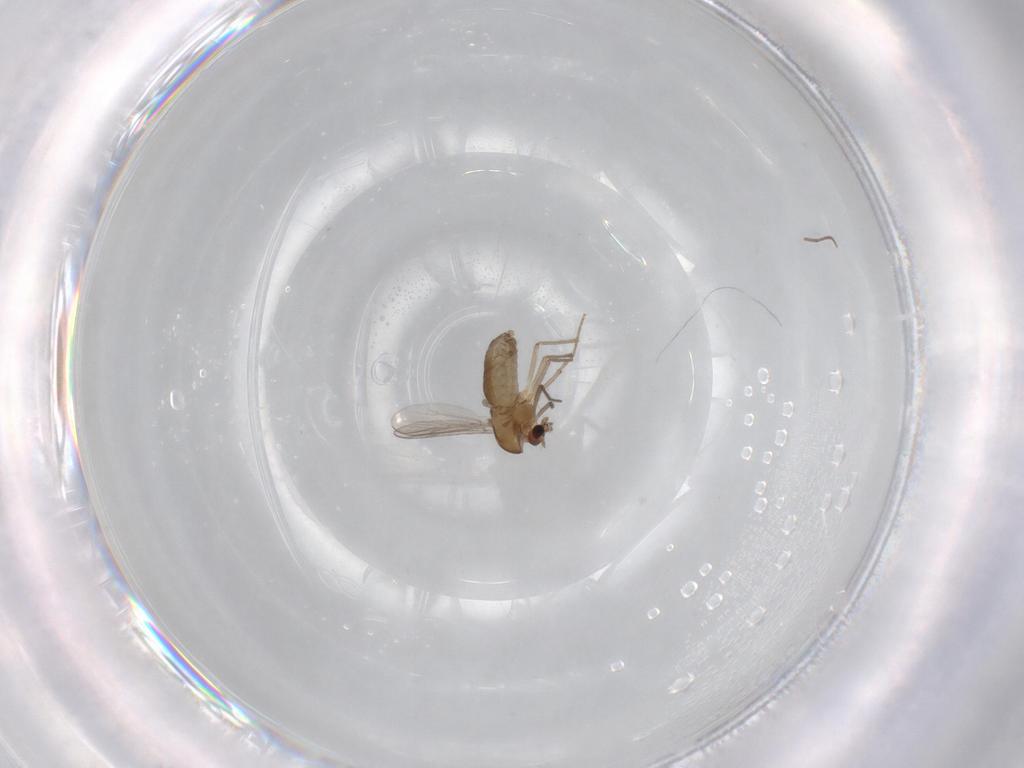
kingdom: Animalia
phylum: Arthropoda
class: Insecta
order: Diptera
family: Chironomidae
